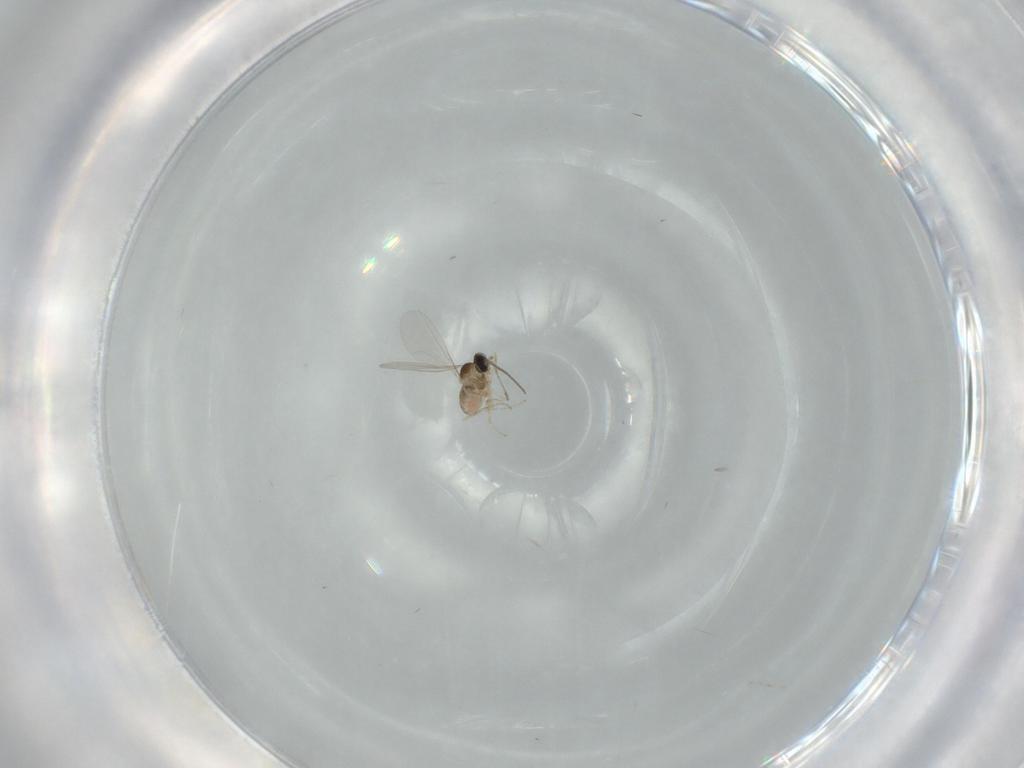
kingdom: Animalia
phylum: Arthropoda
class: Insecta
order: Diptera
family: Cecidomyiidae
